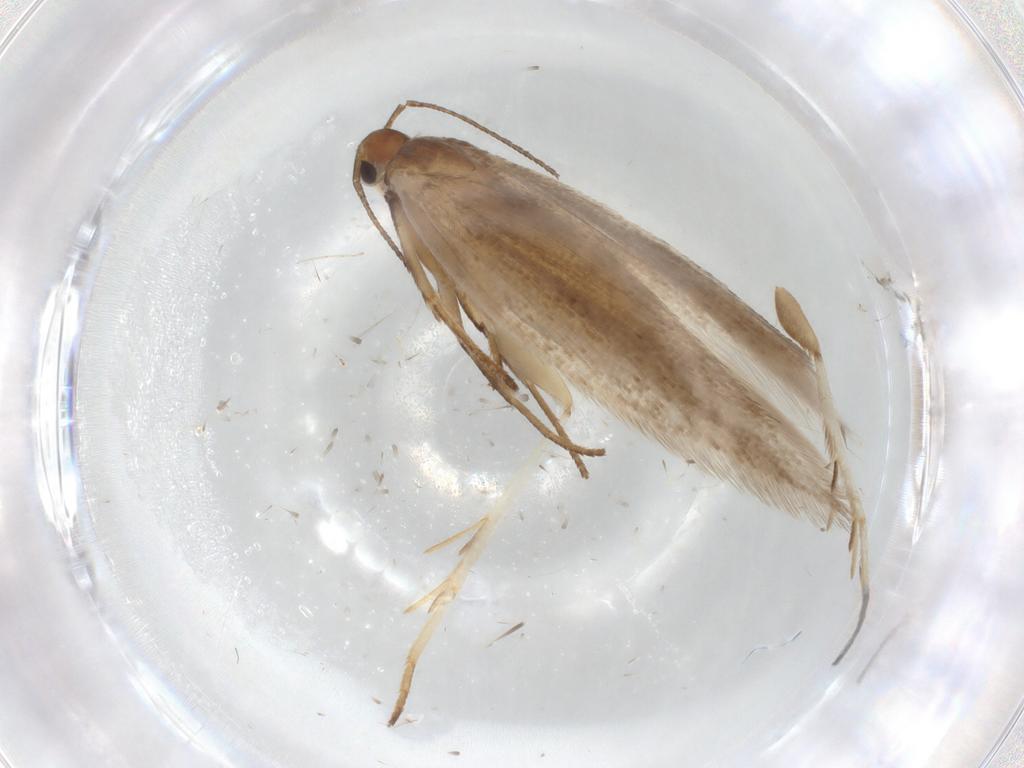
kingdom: Animalia
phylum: Arthropoda
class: Insecta
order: Lepidoptera
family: Gelechiidae
